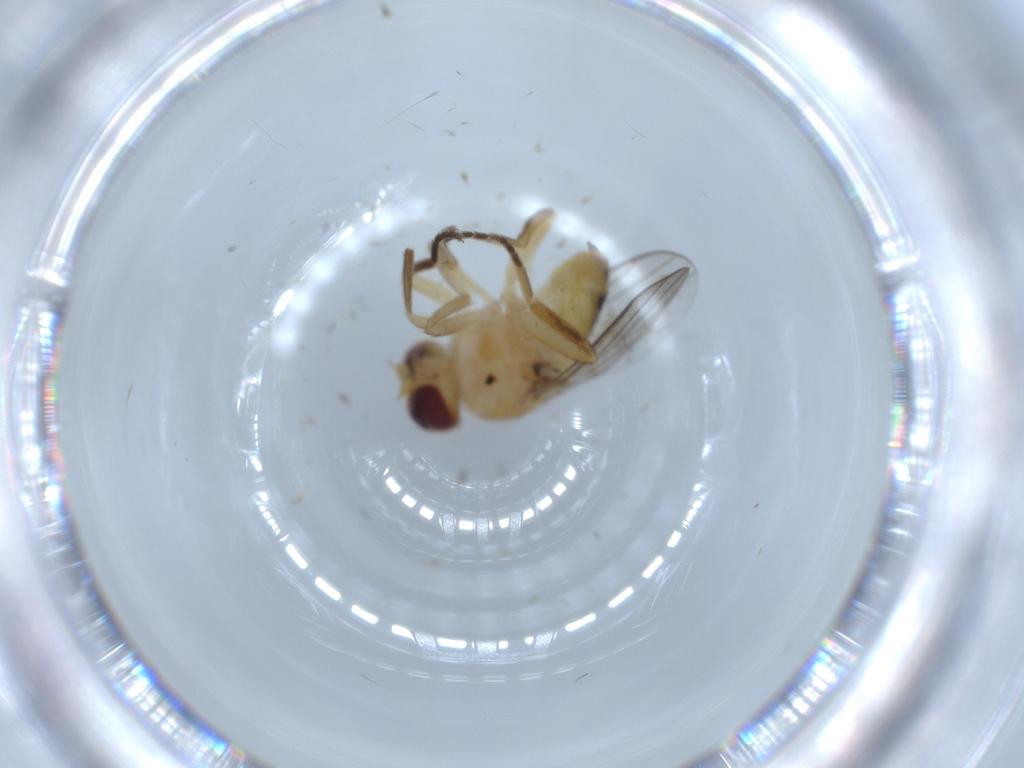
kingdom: Animalia
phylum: Arthropoda
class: Insecta
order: Diptera
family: Chloropidae
